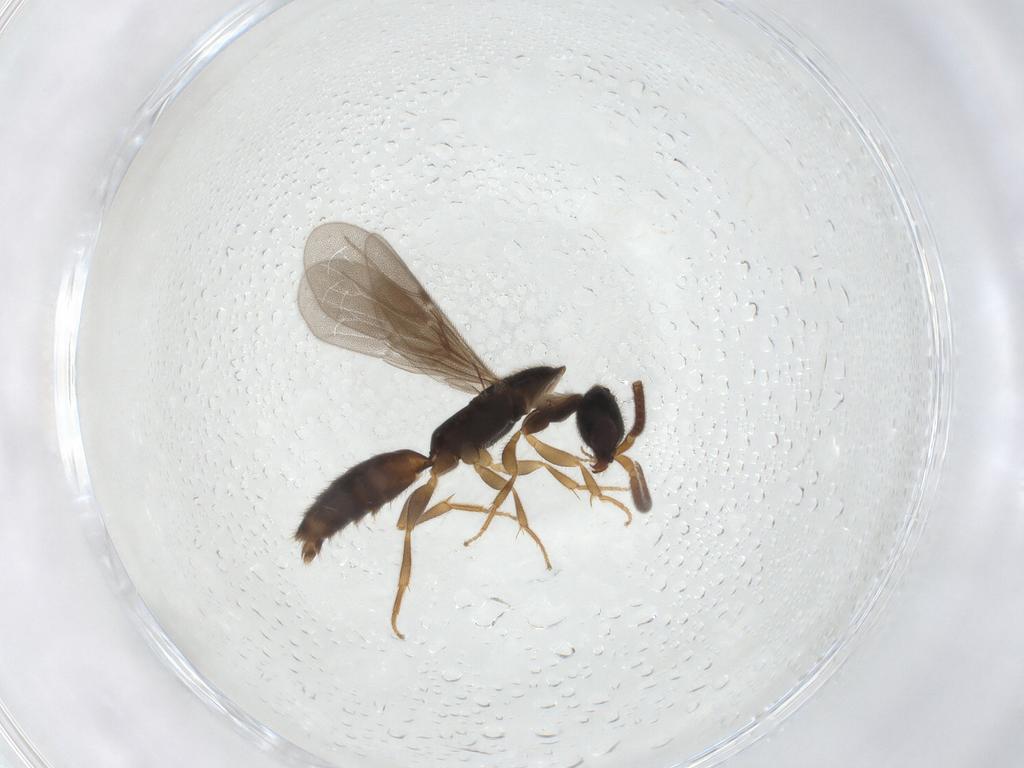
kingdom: Animalia
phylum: Arthropoda
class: Insecta
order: Hymenoptera
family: Bethylidae
